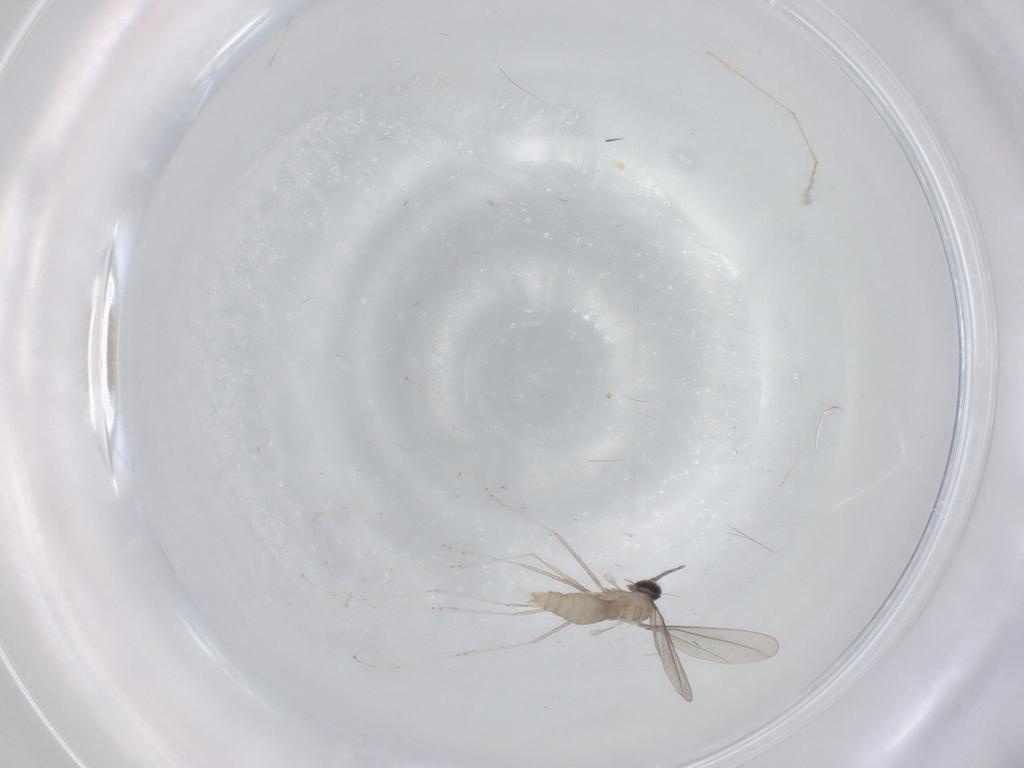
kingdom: Animalia
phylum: Arthropoda
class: Insecta
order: Diptera
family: Chironomidae
